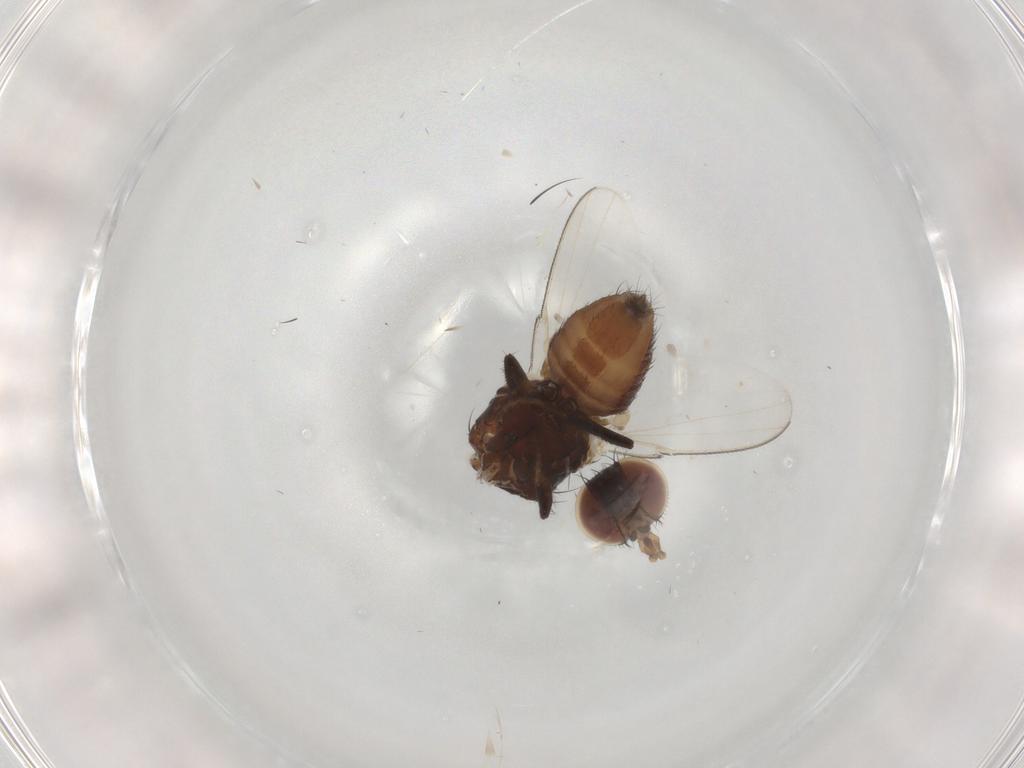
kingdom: Animalia
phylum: Arthropoda
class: Insecta
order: Diptera
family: Milichiidae
